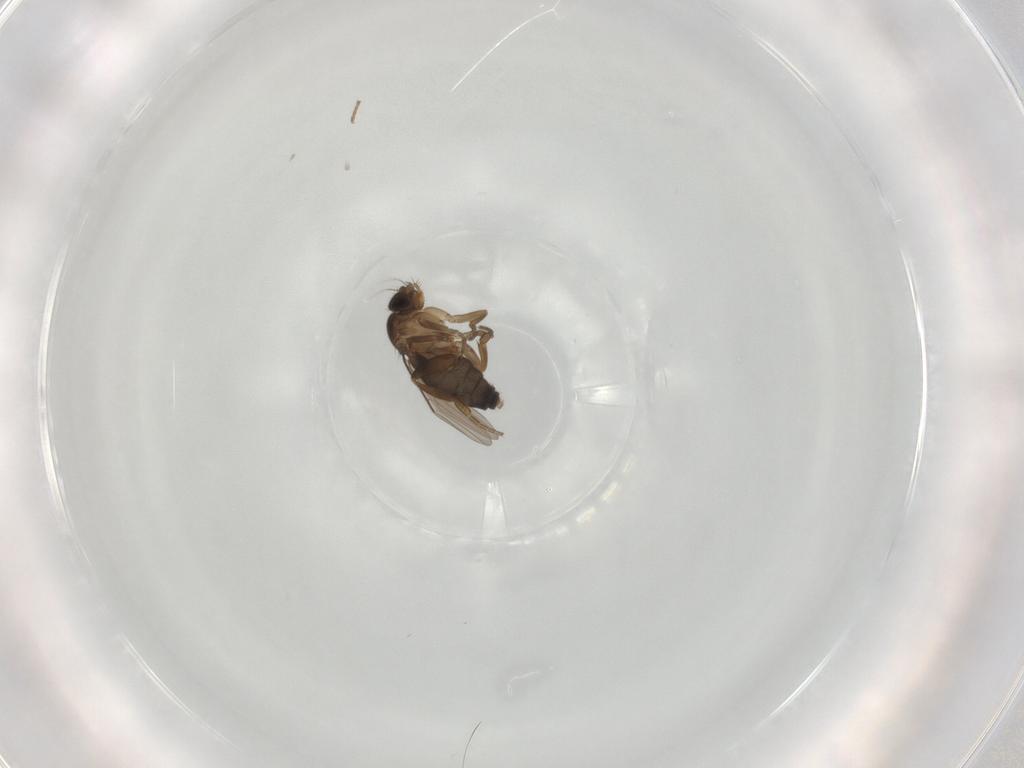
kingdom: Animalia
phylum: Arthropoda
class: Insecta
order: Diptera
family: Phoridae
